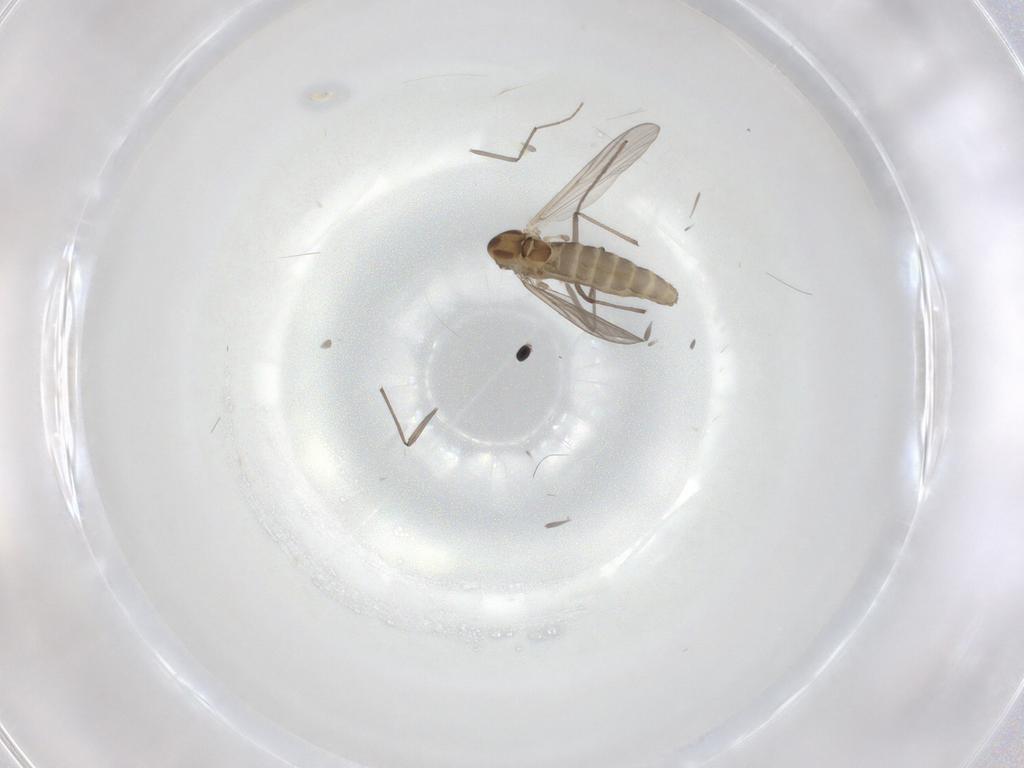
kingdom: Animalia
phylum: Arthropoda
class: Insecta
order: Diptera
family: Chironomidae
